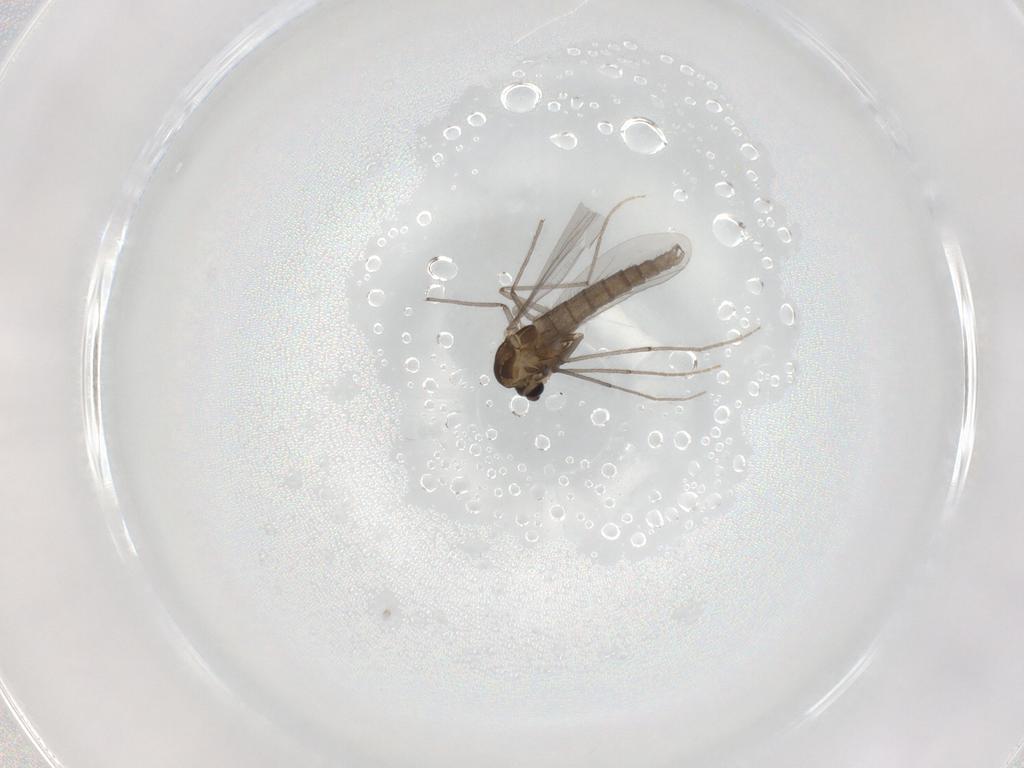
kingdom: Animalia
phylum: Arthropoda
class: Insecta
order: Diptera
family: Chironomidae
